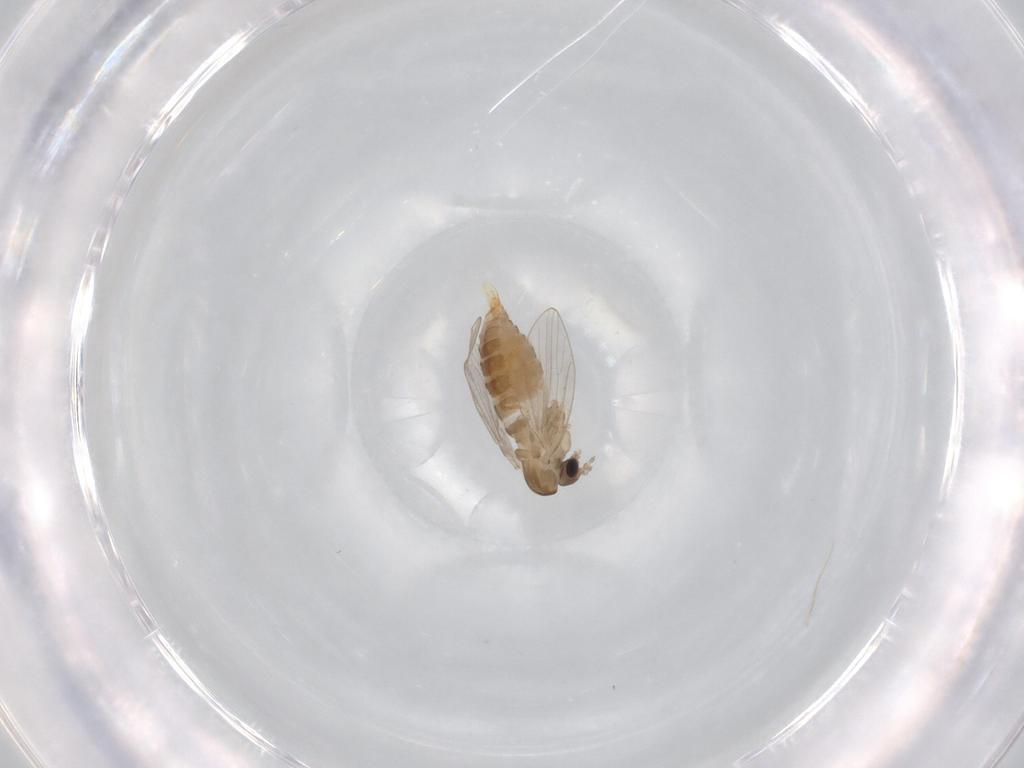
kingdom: Animalia
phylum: Arthropoda
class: Insecta
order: Diptera
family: Psychodidae
